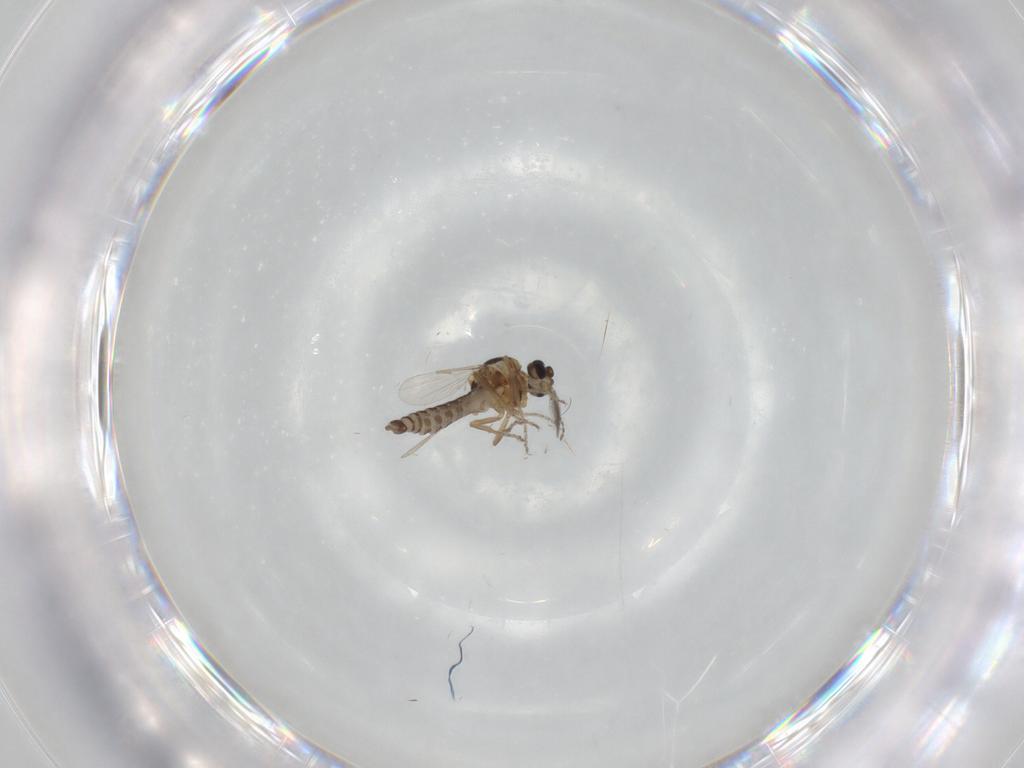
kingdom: Animalia
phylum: Arthropoda
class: Insecta
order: Diptera
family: Ceratopogonidae
